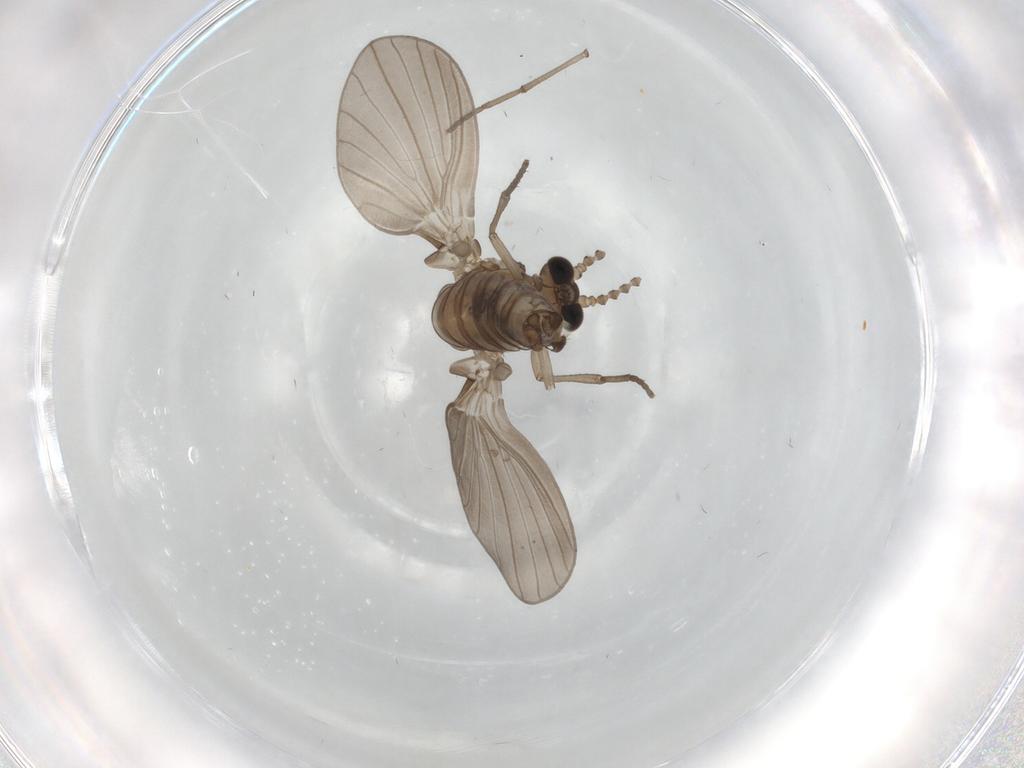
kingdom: Animalia
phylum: Arthropoda
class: Insecta
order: Diptera
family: Psychodidae
